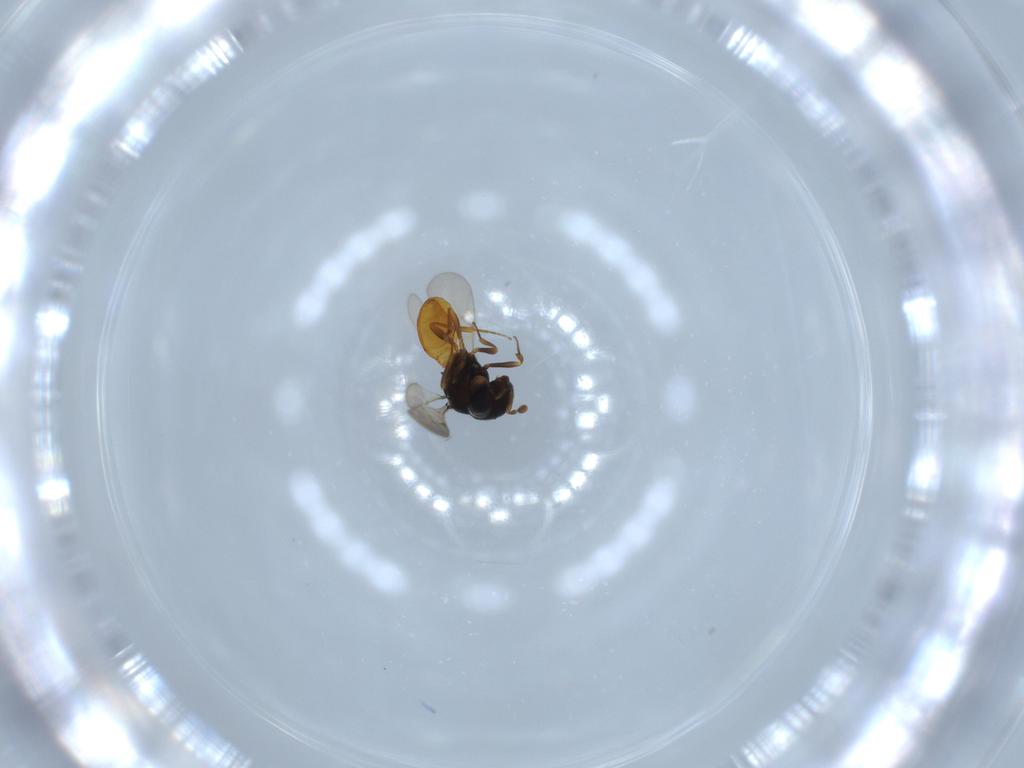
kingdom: Animalia
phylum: Arthropoda
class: Insecta
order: Hymenoptera
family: Scelionidae
